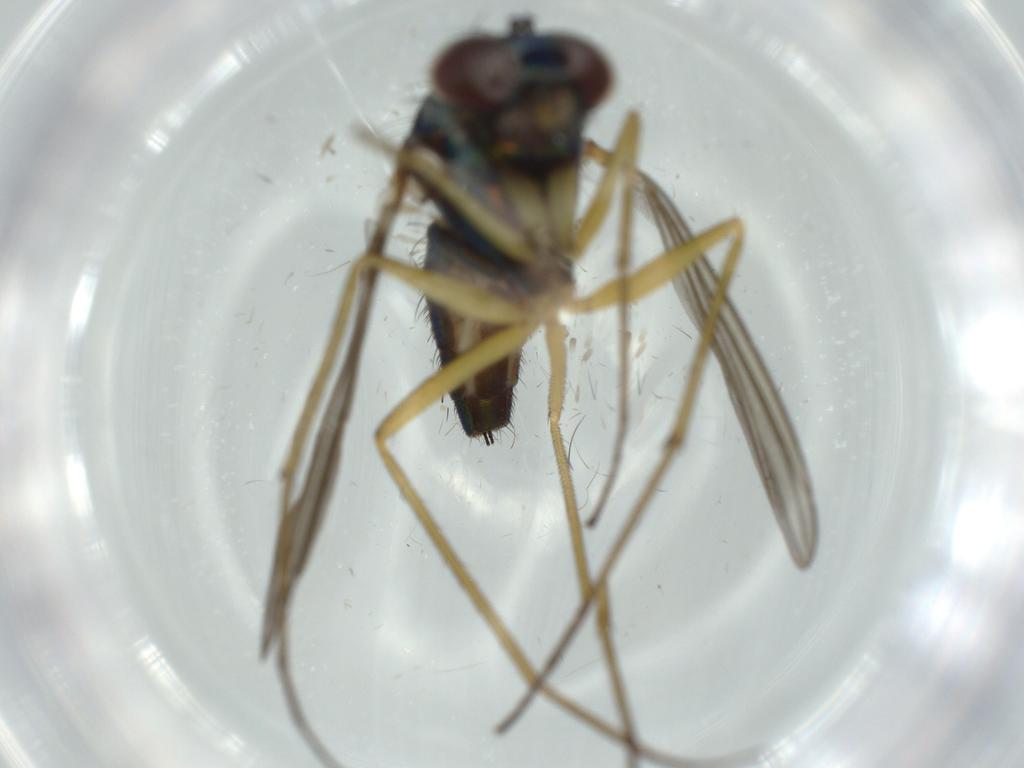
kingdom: Animalia
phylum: Arthropoda
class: Insecta
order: Diptera
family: Dolichopodidae
